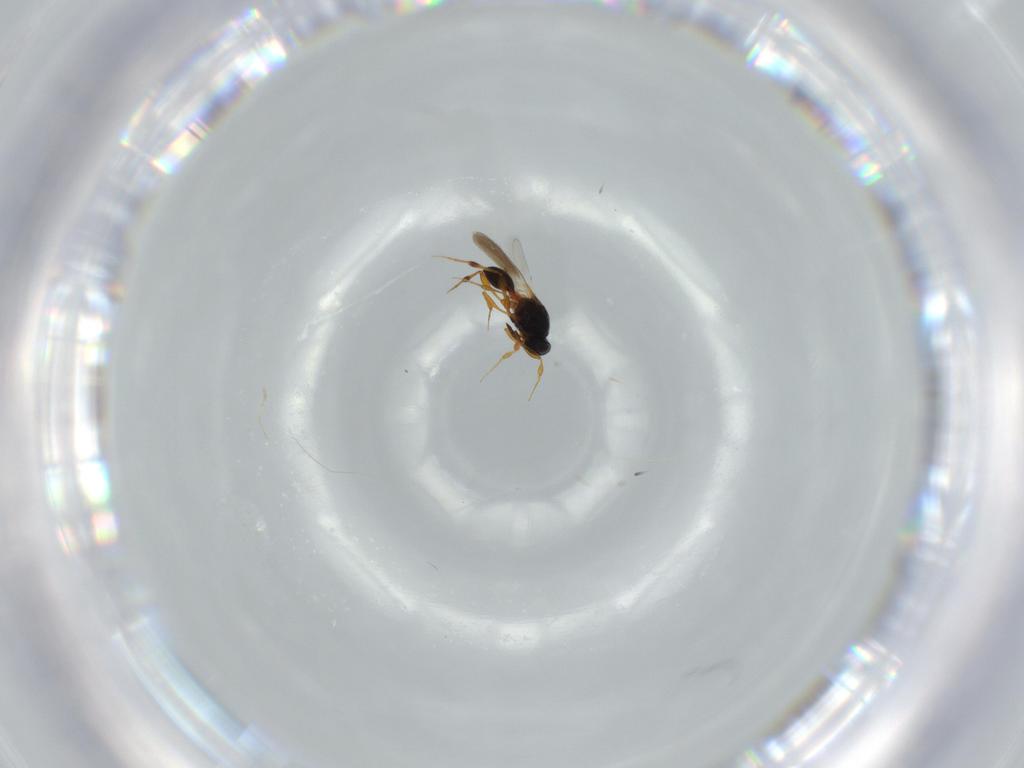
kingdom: Animalia
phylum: Arthropoda
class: Insecta
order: Hymenoptera
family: Platygastridae
